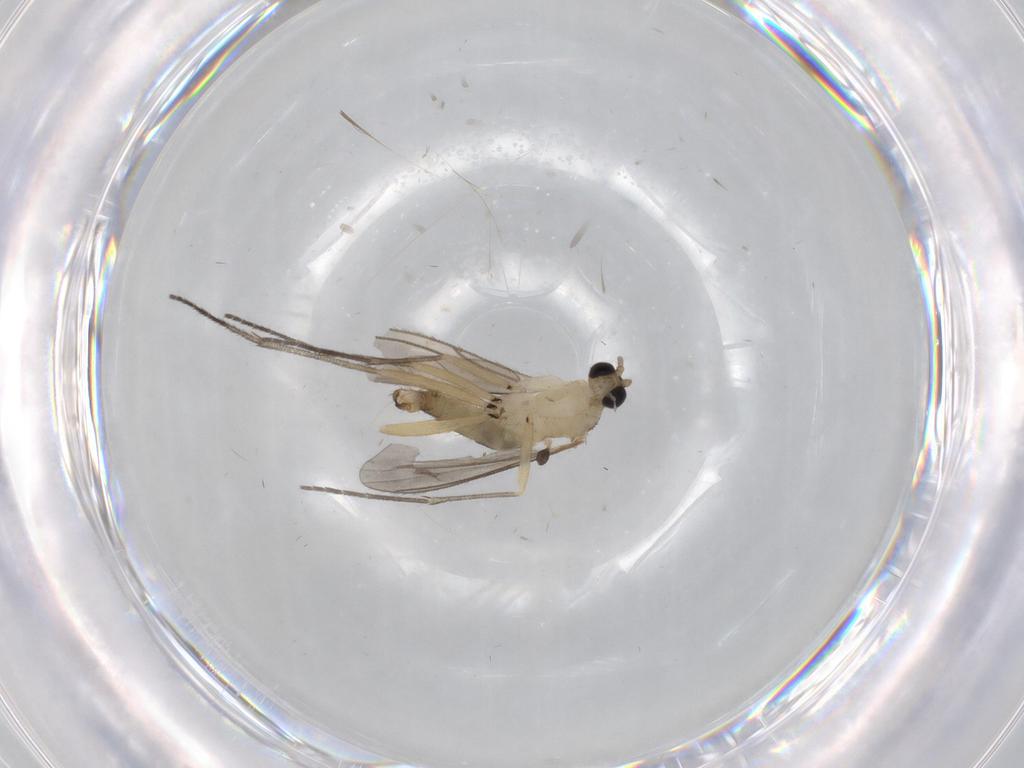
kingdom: Animalia
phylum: Arthropoda
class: Insecta
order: Diptera
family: Sciaridae
